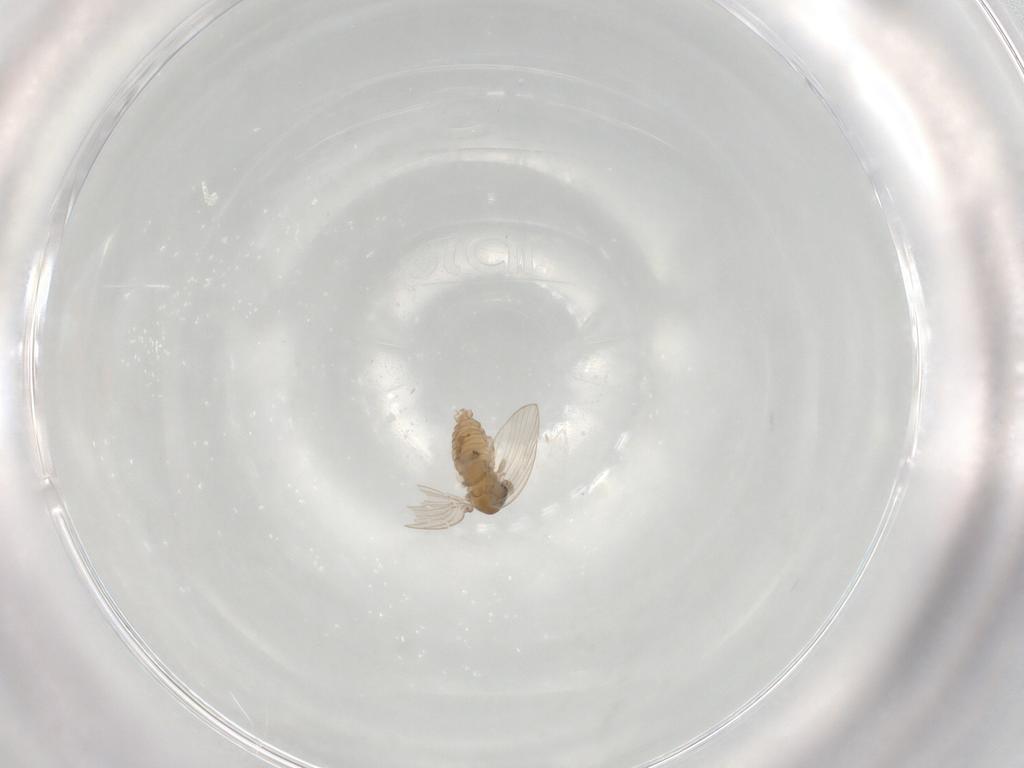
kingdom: Animalia
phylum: Arthropoda
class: Insecta
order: Diptera
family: Psychodidae
